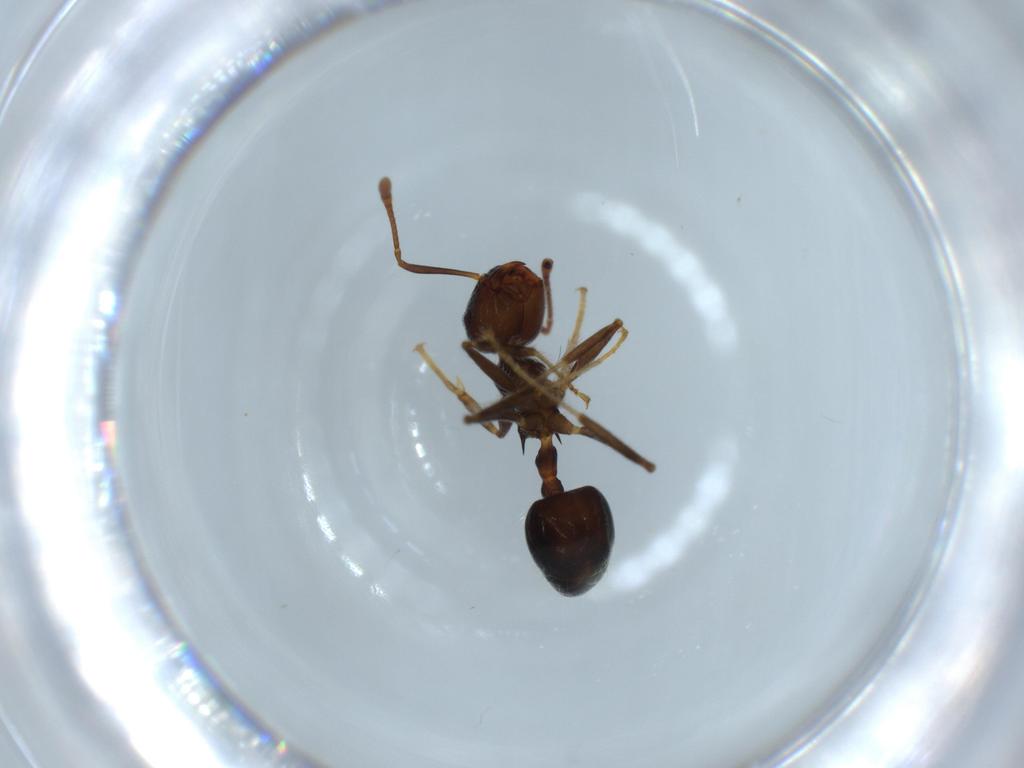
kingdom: Animalia
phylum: Arthropoda
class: Insecta
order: Hymenoptera
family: Formicidae
